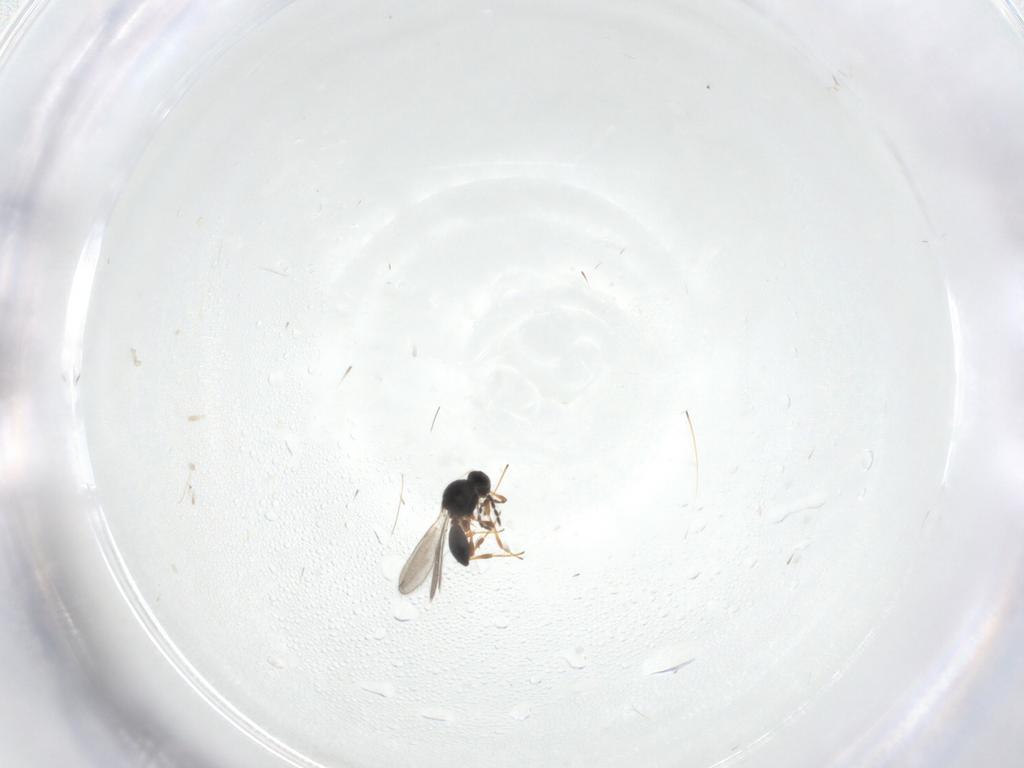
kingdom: Animalia
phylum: Arthropoda
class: Insecta
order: Hymenoptera
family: Platygastridae
